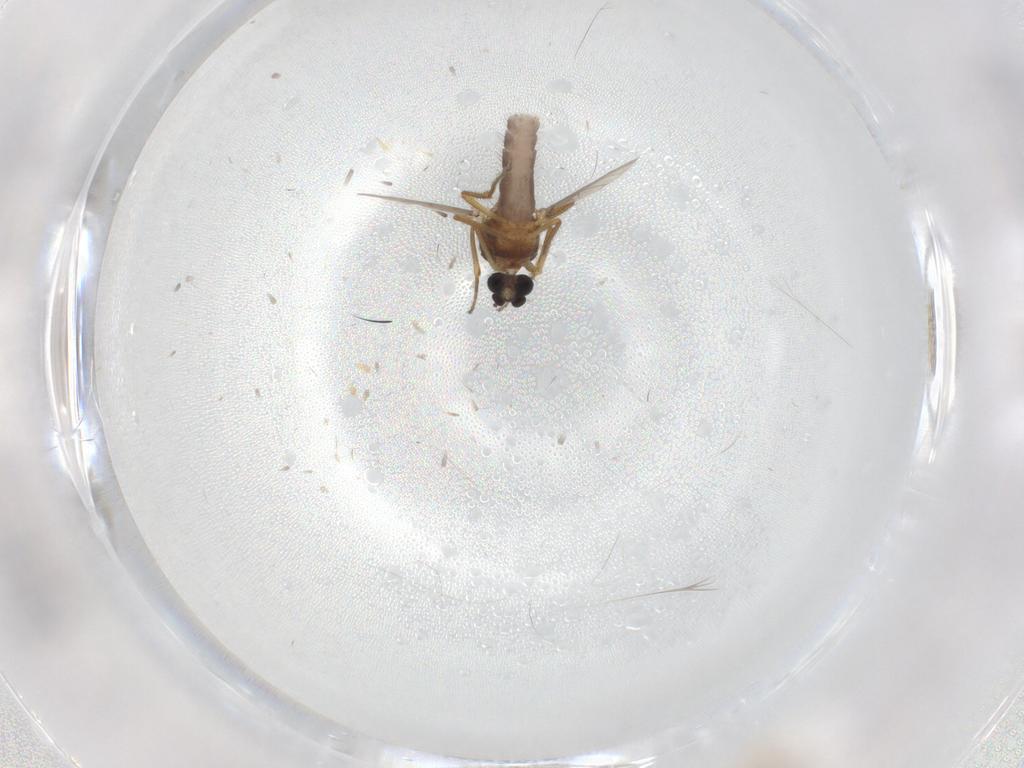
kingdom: Animalia
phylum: Arthropoda
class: Insecta
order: Diptera
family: Ceratopogonidae
